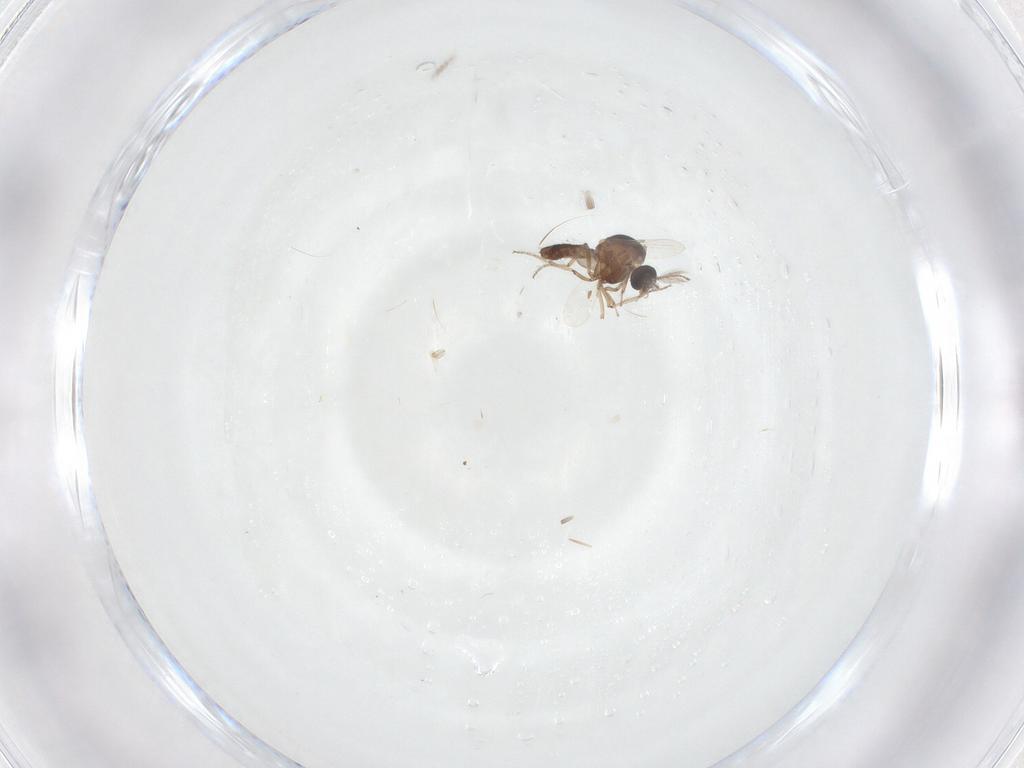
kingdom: Animalia
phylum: Arthropoda
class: Insecta
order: Diptera
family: Ceratopogonidae
